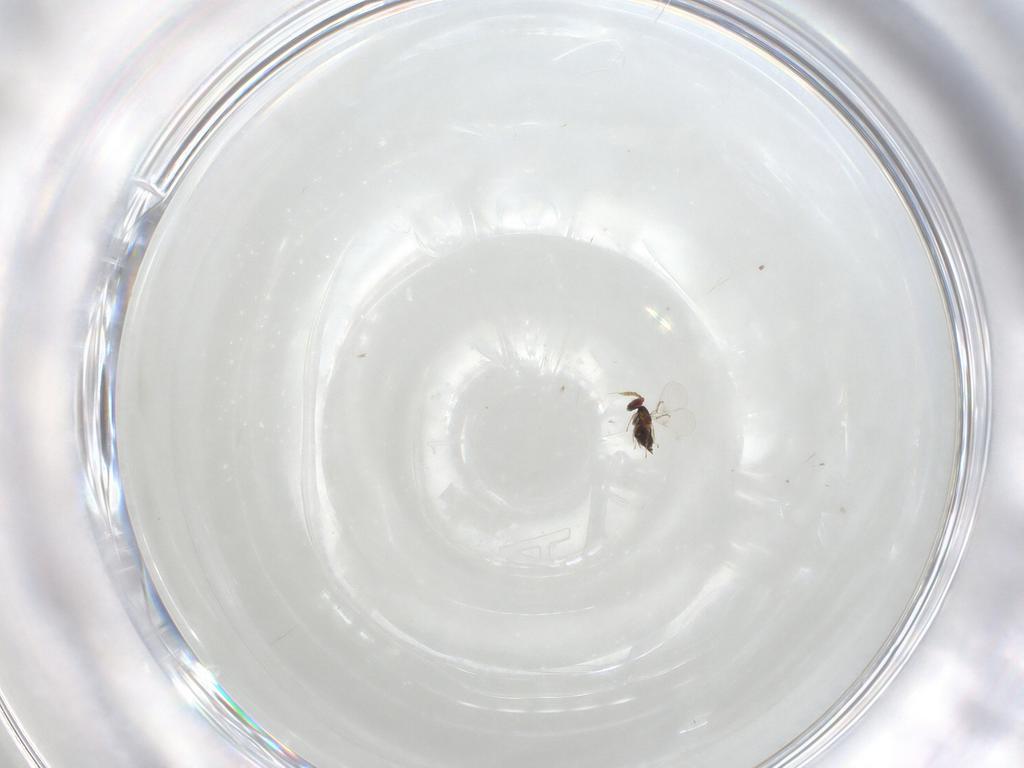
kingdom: Animalia
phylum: Arthropoda
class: Insecta
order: Hymenoptera
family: Trichogrammatidae
